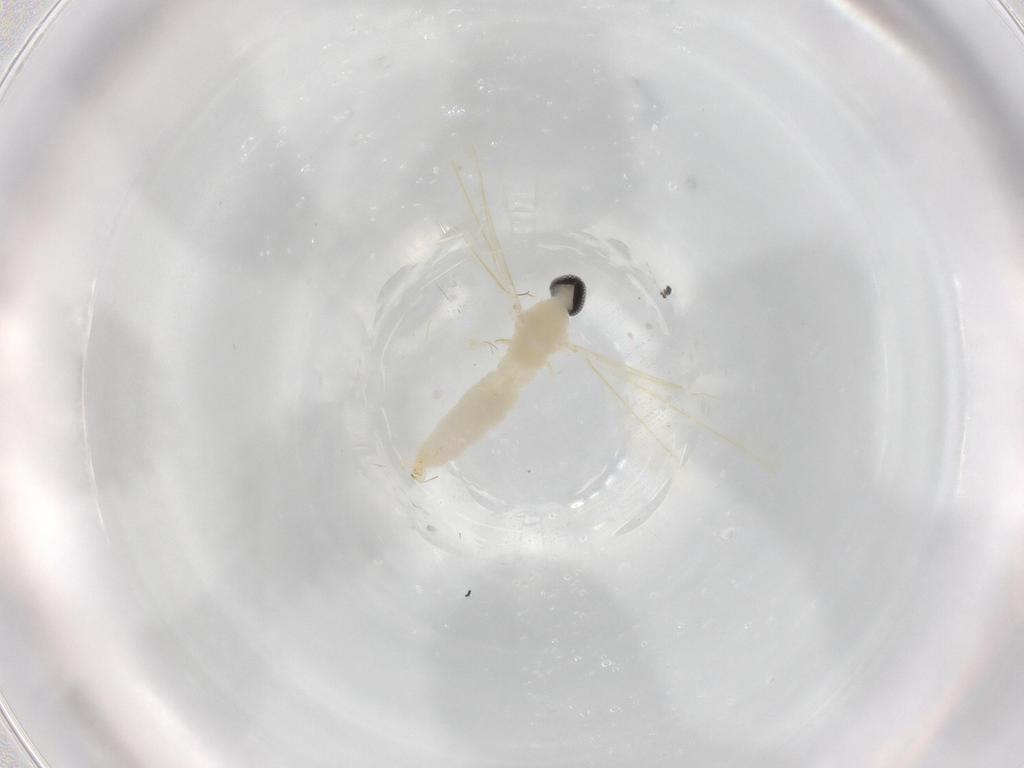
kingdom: Animalia
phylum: Arthropoda
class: Insecta
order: Diptera
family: Cecidomyiidae
